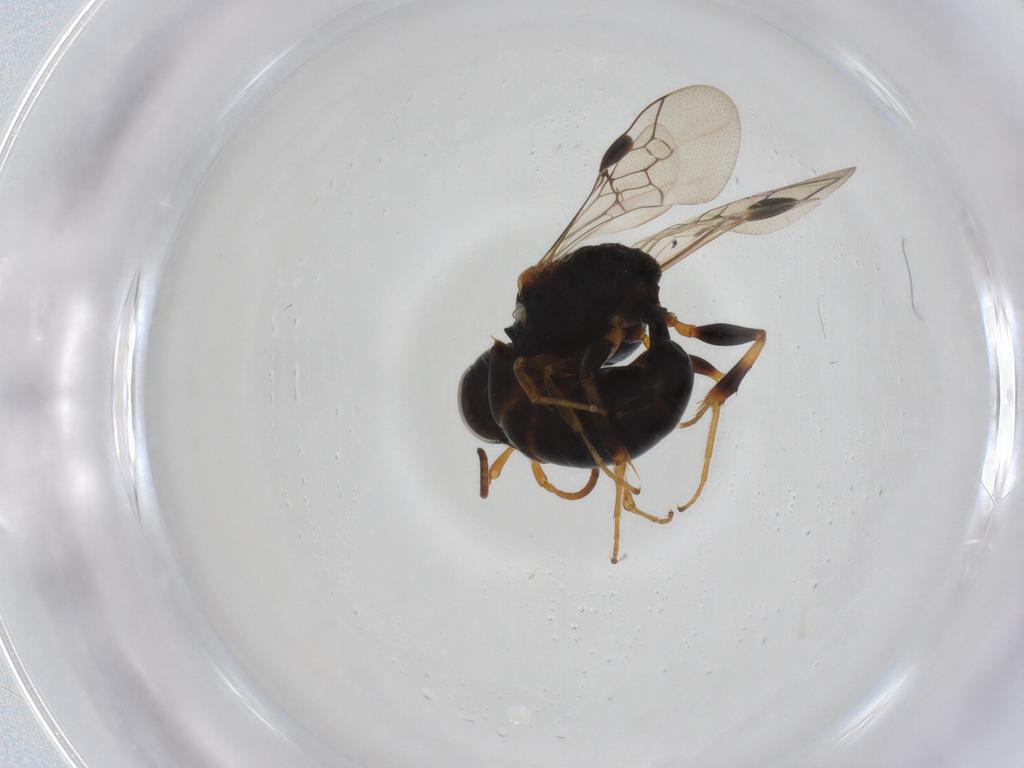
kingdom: Animalia
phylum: Arthropoda
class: Insecta
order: Hymenoptera
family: Pemphredonidae
